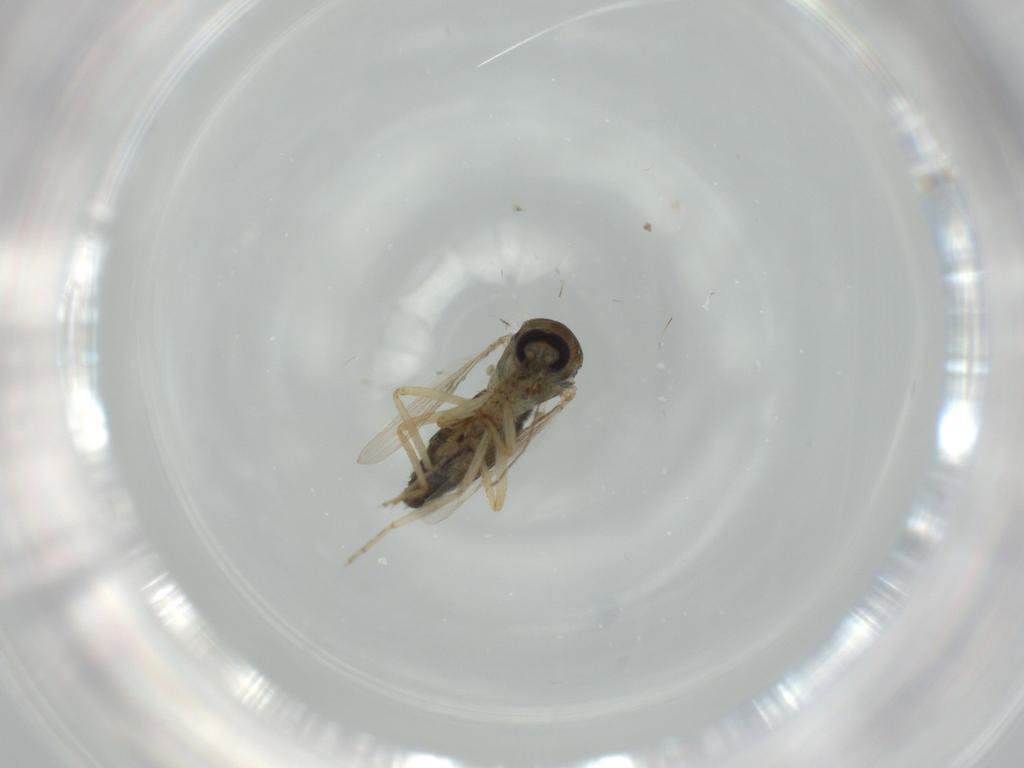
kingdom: Animalia
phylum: Arthropoda
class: Insecta
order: Diptera
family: Ceratopogonidae
